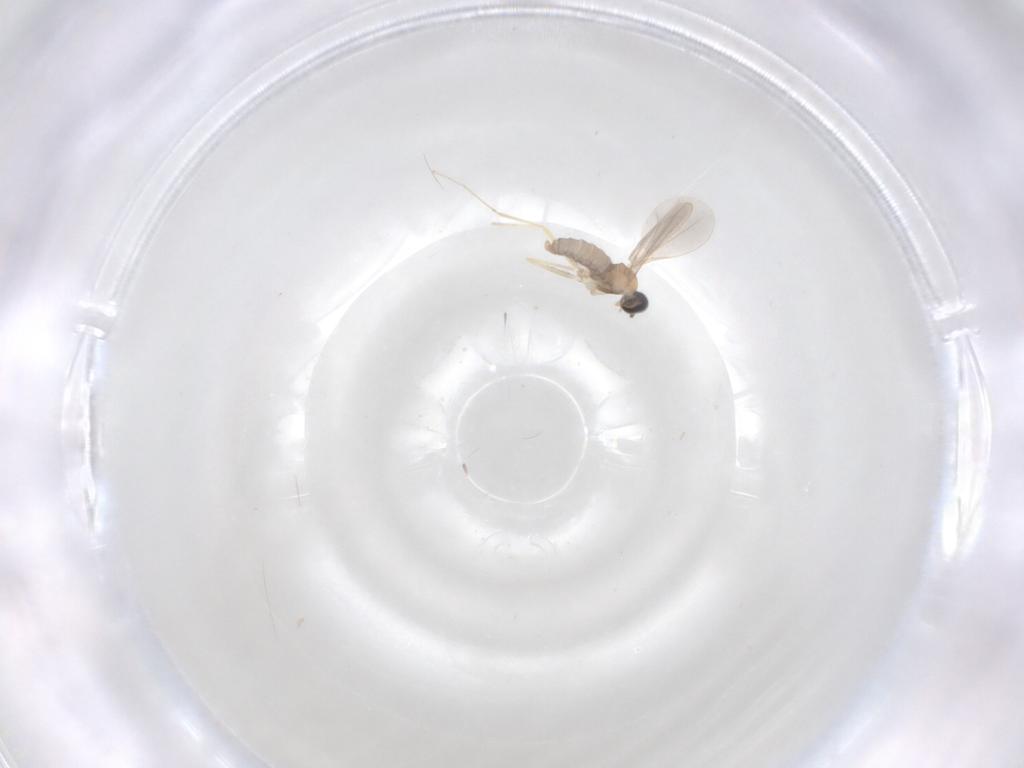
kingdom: Animalia
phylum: Arthropoda
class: Insecta
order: Diptera
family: Cecidomyiidae
